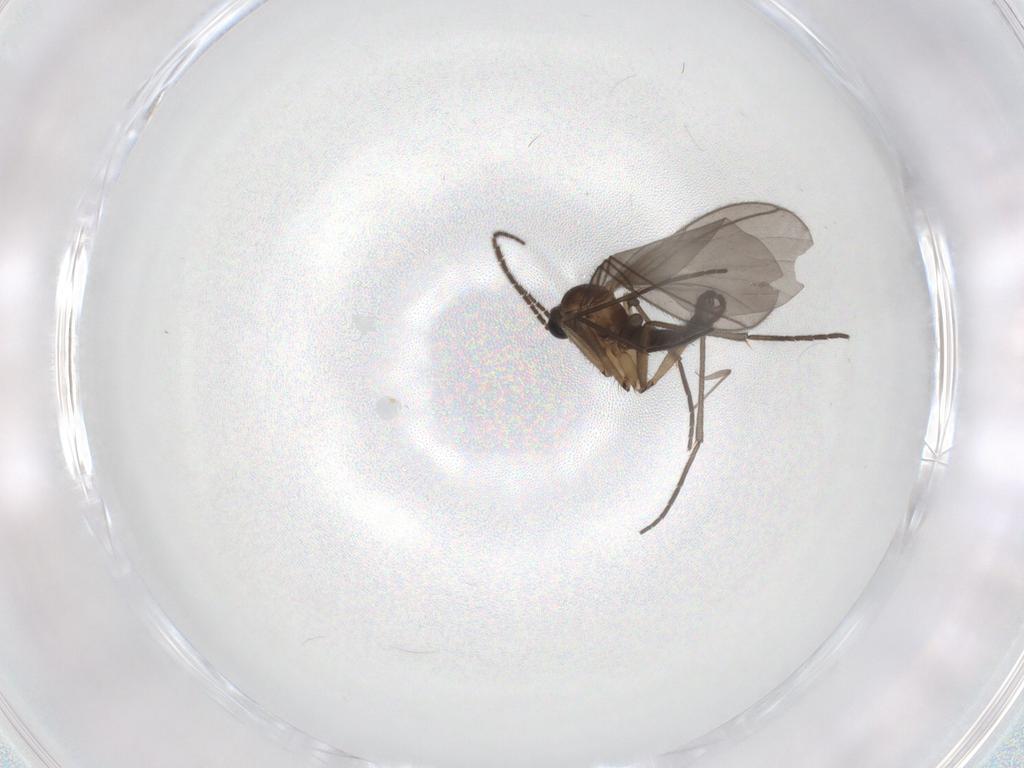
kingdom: Animalia
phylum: Arthropoda
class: Insecta
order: Diptera
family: Sciaridae
